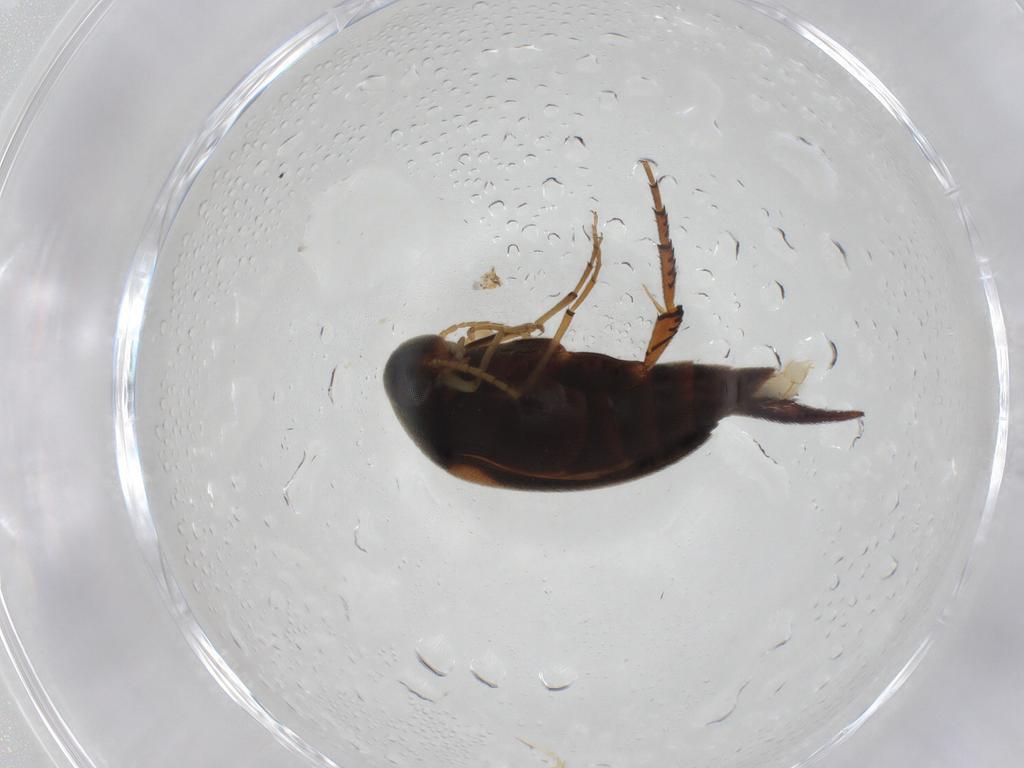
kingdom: Animalia
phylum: Arthropoda
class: Insecta
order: Coleoptera
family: Mordellidae
